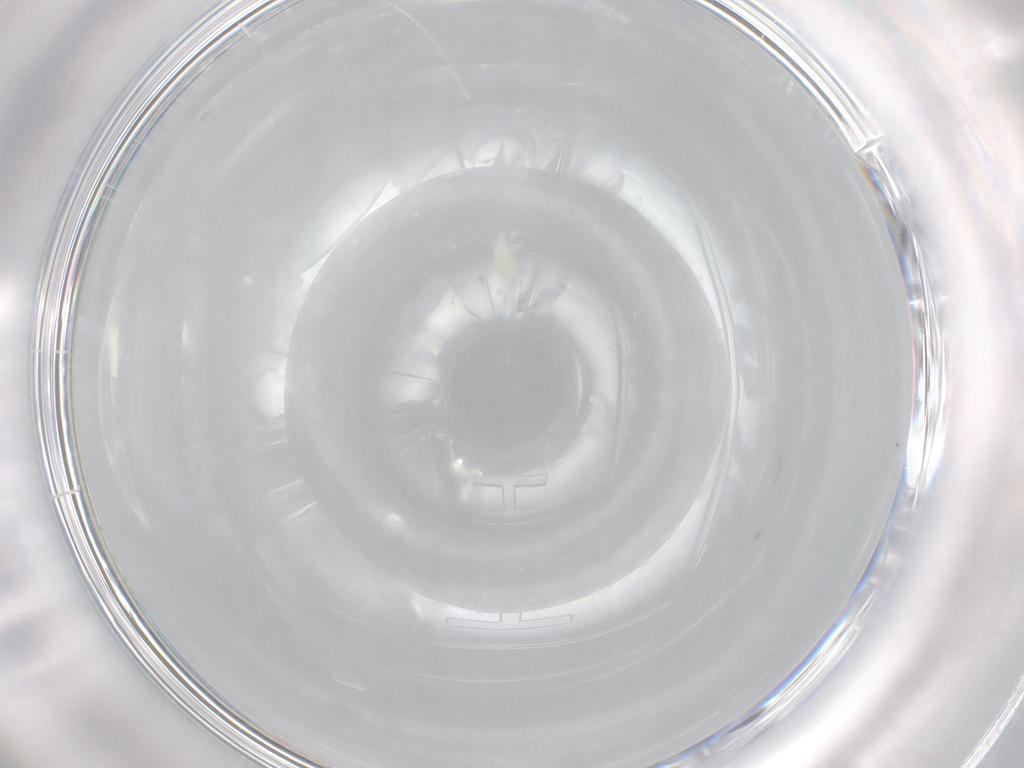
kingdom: Animalia
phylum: Arthropoda
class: Arachnida
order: Trombidiformes
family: Bdellidae
